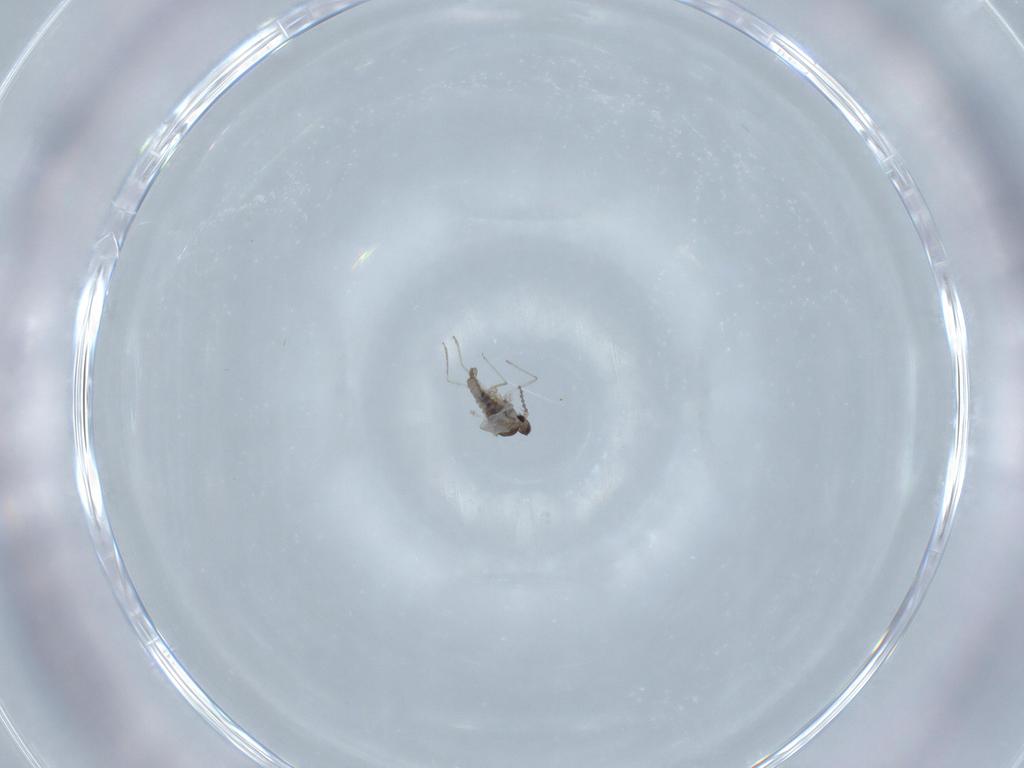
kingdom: Animalia
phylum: Arthropoda
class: Insecta
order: Diptera
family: Cecidomyiidae
